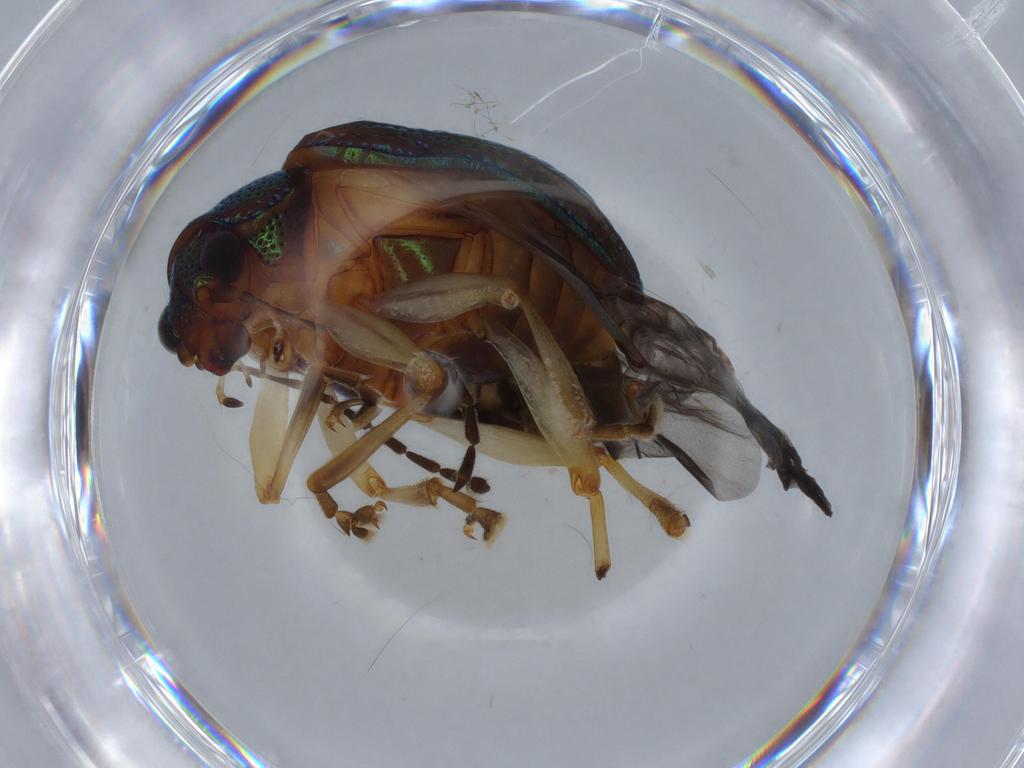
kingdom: Animalia
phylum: Arthropoda
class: Insecta
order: Coleoptera
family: Chrysomelidae
